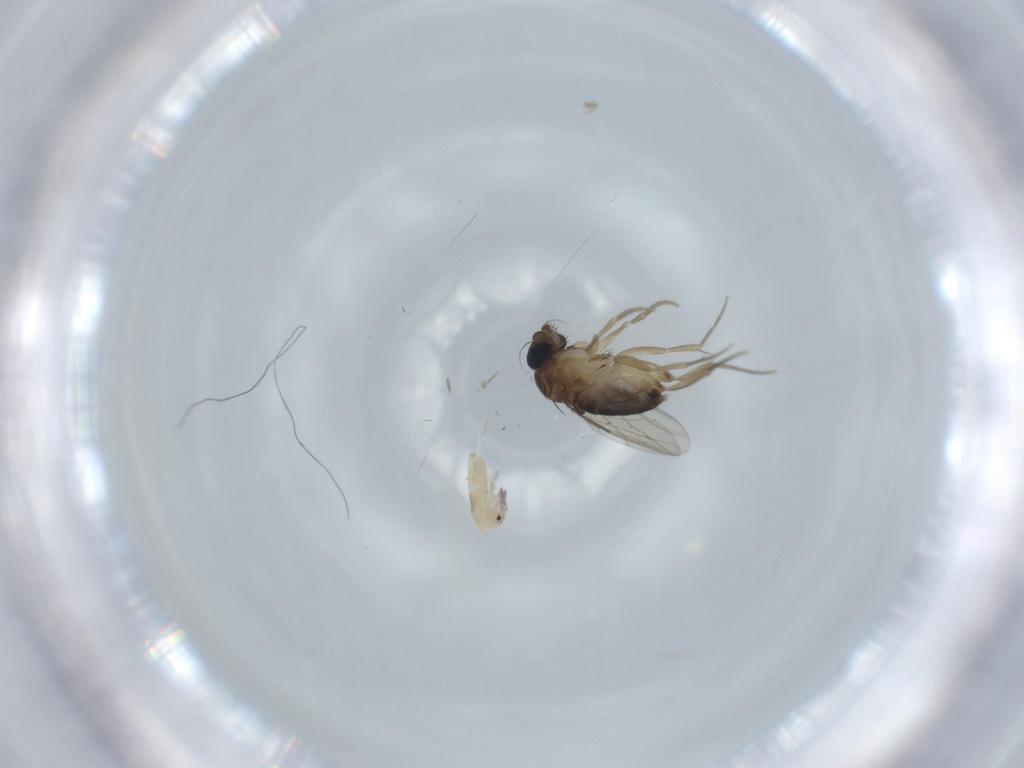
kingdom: Animalia
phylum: Arthropoda
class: Insecta
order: Diptera
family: Phoridae
